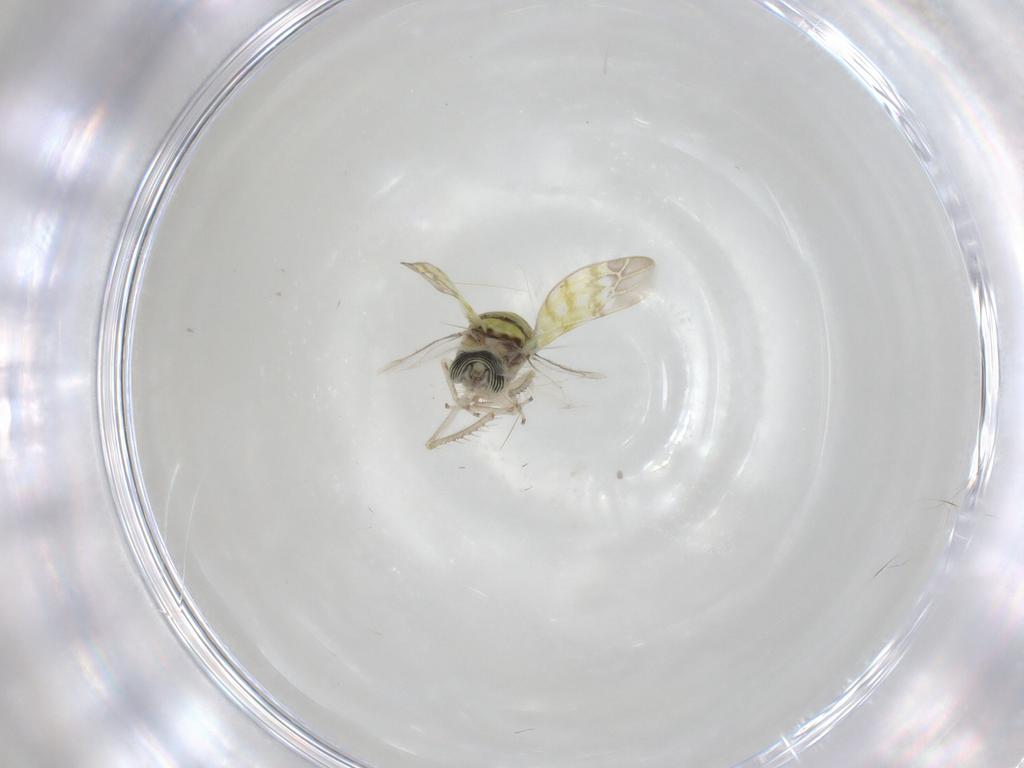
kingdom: Animalia
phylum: Arthropoda
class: Insecta
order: Hemiptera
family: Cicadellidae
